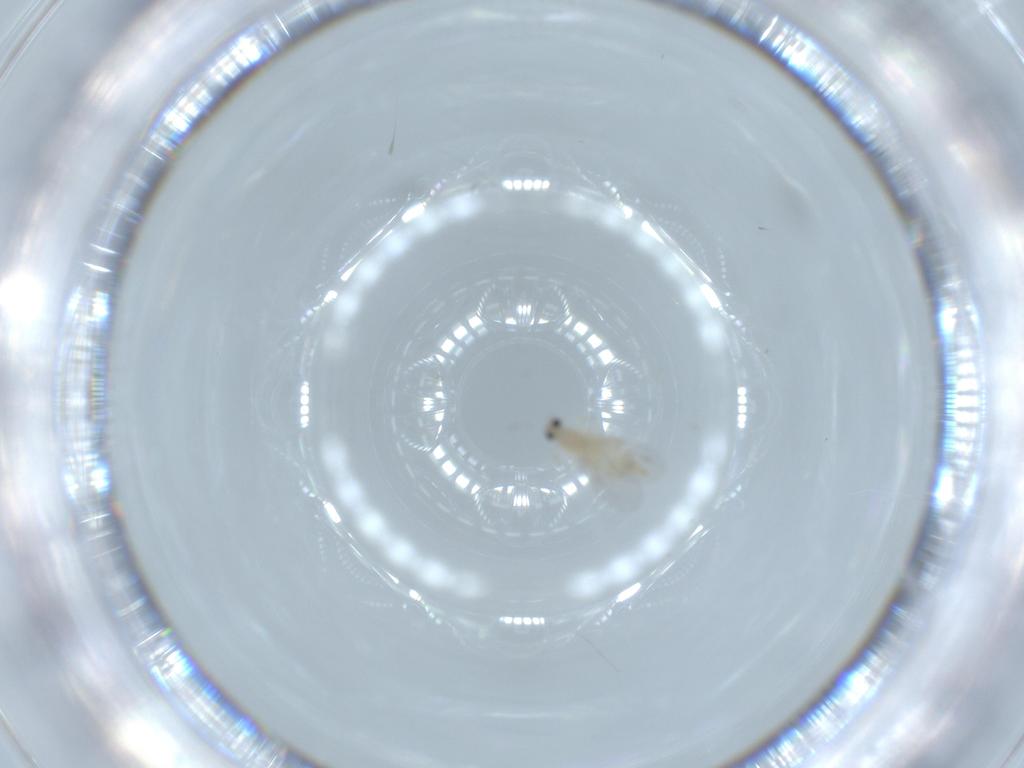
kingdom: Animalia
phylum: Arthropoda
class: Insecta
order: Diptera
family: Cecidomyiidae
